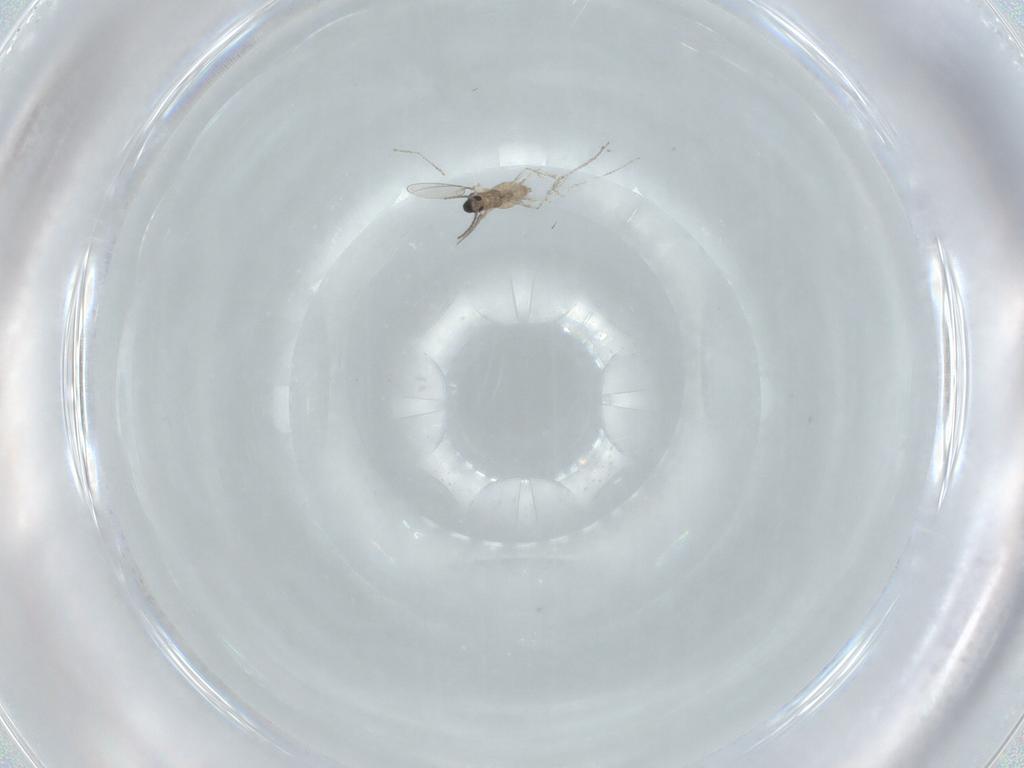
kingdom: Animalia
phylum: Arthropoda
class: Insecta
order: Diptera
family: Cecidomyiidae
